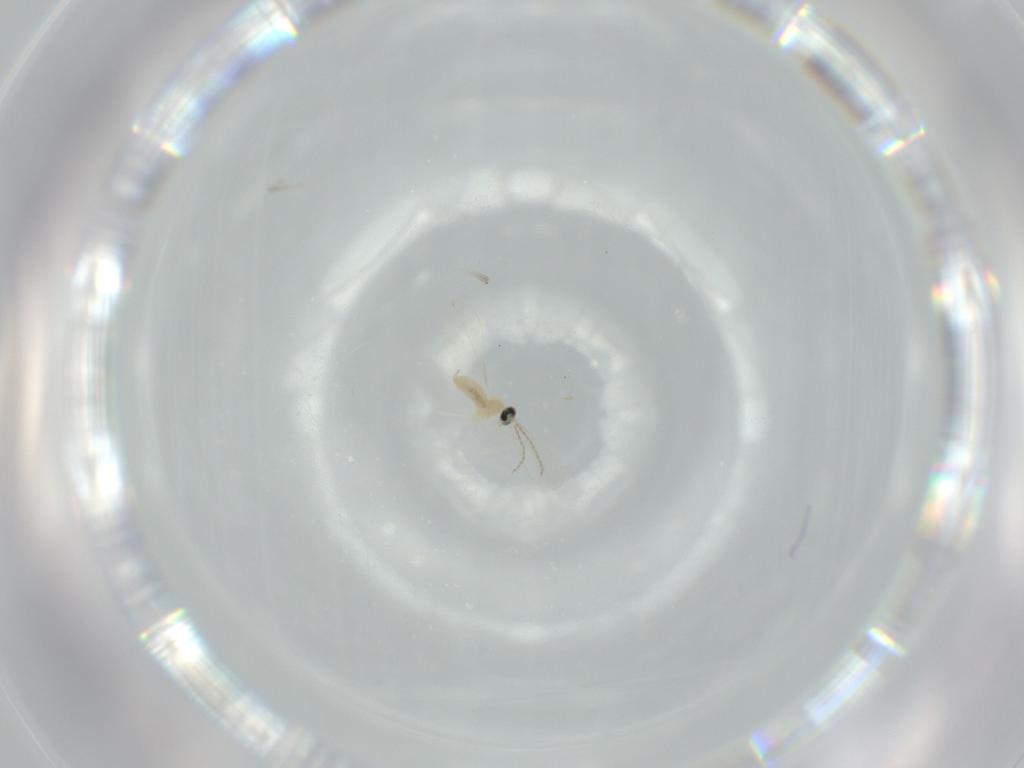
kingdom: Animalia
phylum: Arthropoda
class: Insecta
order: Diptera
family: Cecidomyiidae
